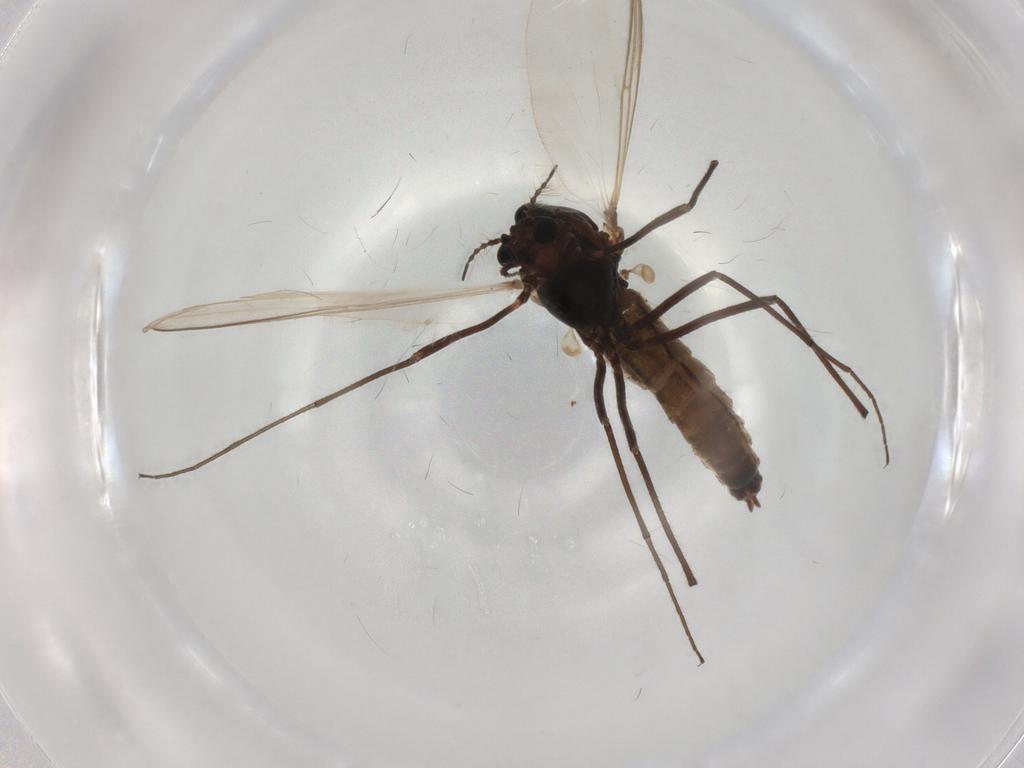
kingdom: Animalia
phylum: Arthropoda
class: Insecta
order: Diptera
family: Chironomidae
